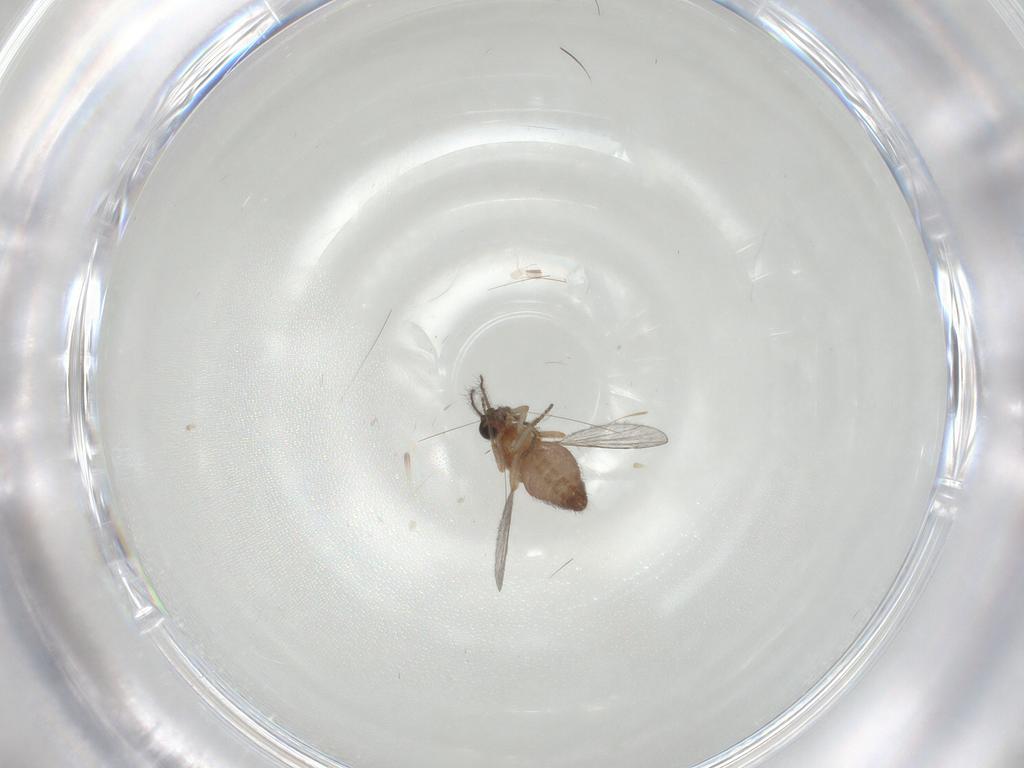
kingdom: Animalia
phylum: Arthropoda
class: Insecta
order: Diptera
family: Ceratopogonidae
